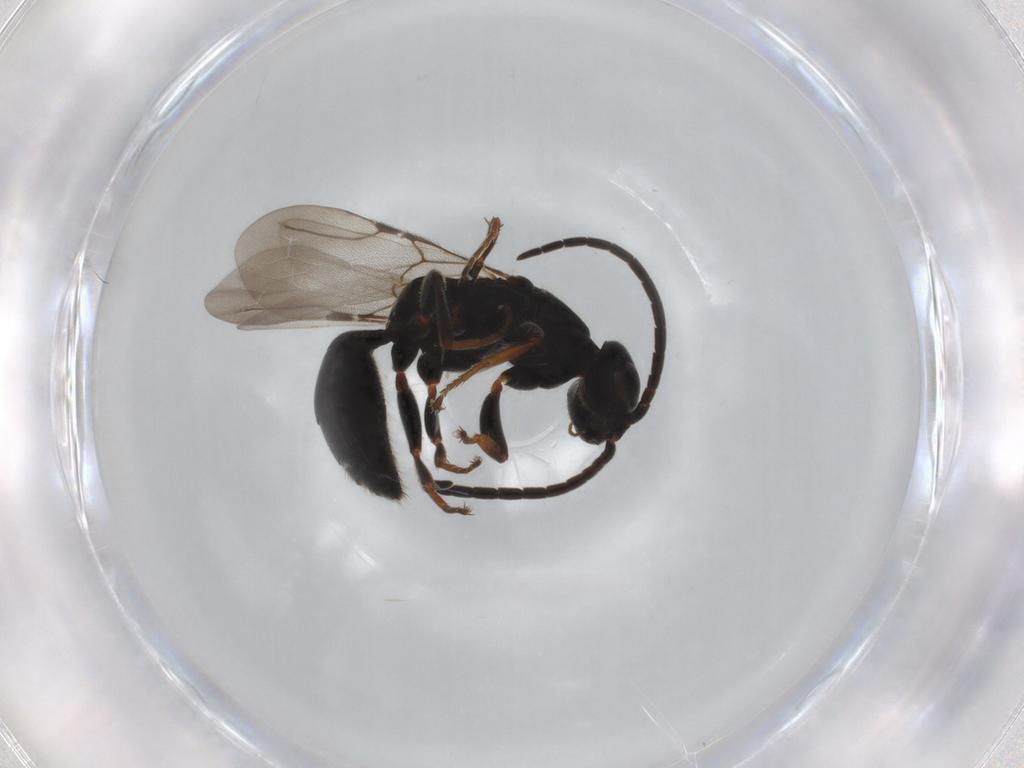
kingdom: Animalia
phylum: Arthropoda
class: Insecta
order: Hymenoptera
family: Bethylidae
